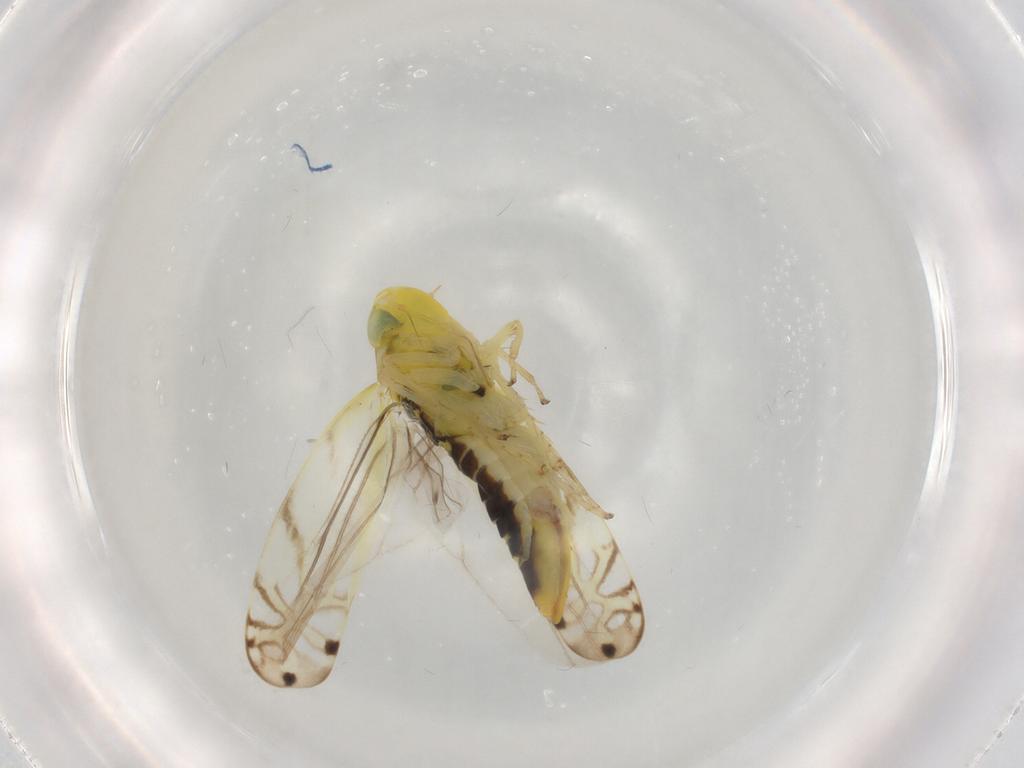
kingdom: Animalia
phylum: Arthropoda
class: Insecta
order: Hemiptera
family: Cicadellidae
